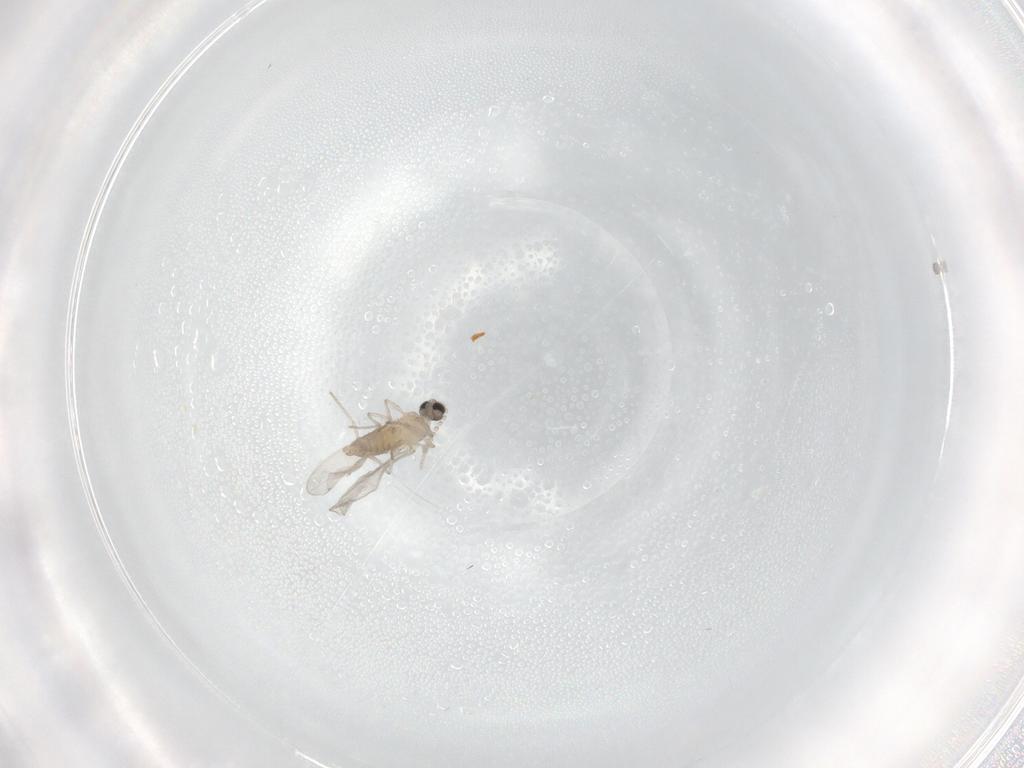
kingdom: Animalia
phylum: Arthropoda
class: Insecta
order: Diptera
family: Cecidomyiidae
